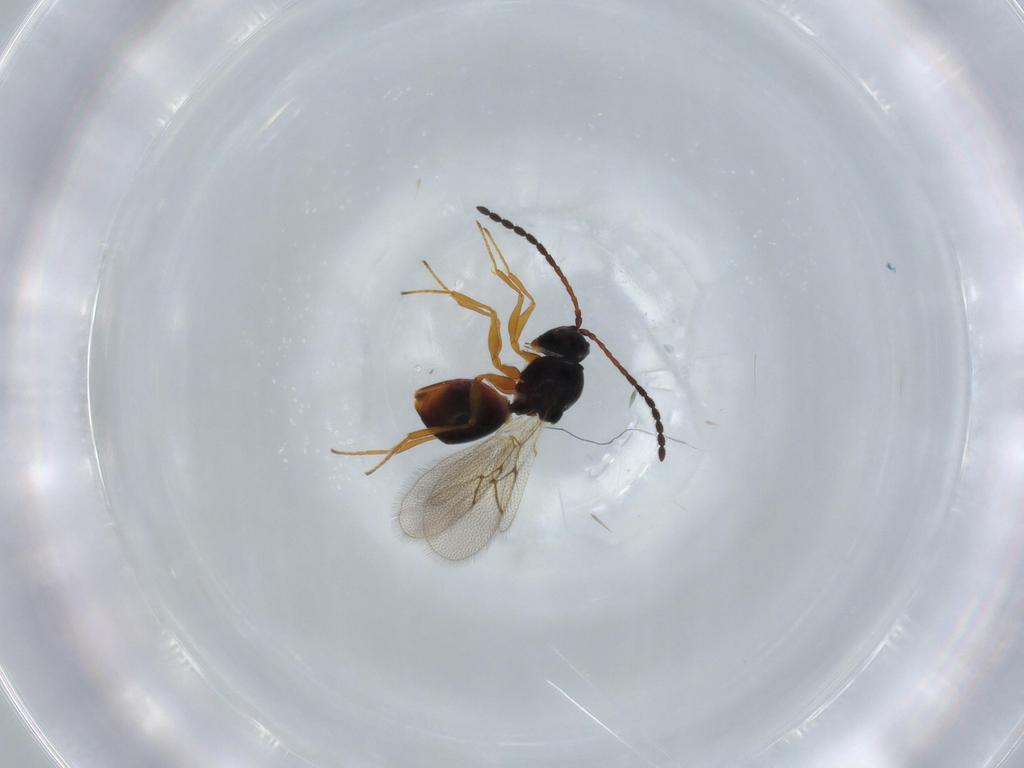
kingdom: Animalia
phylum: Arthropoda
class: Insecta
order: Hymenoptera
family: Figitidae
